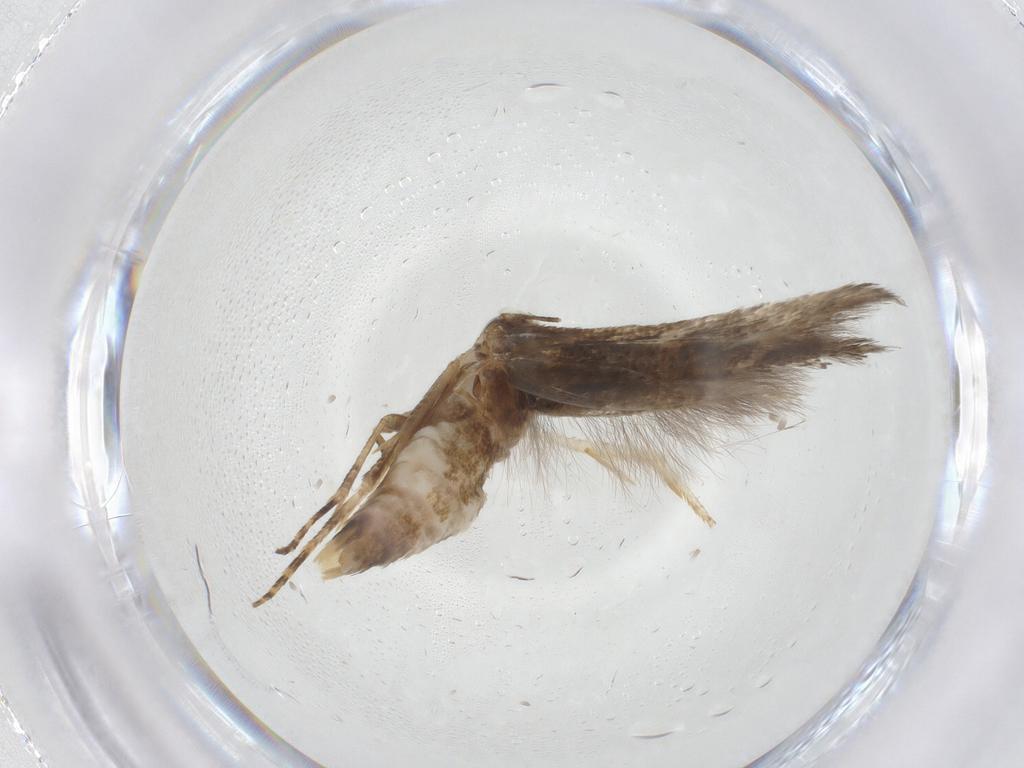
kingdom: Animalia
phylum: Arthropoda
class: Insecta
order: Lepidoptera
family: Momphidae
